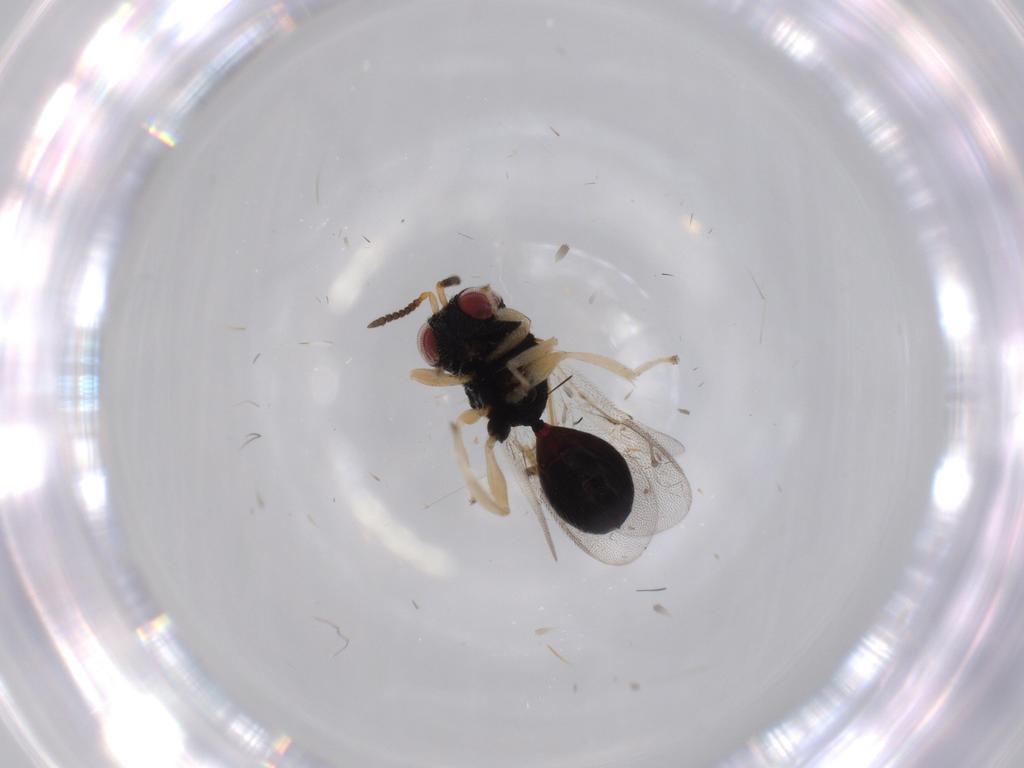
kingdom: Animalia
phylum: Arthropoda
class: Insecta
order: Hymenoptera
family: Eurytomidae
